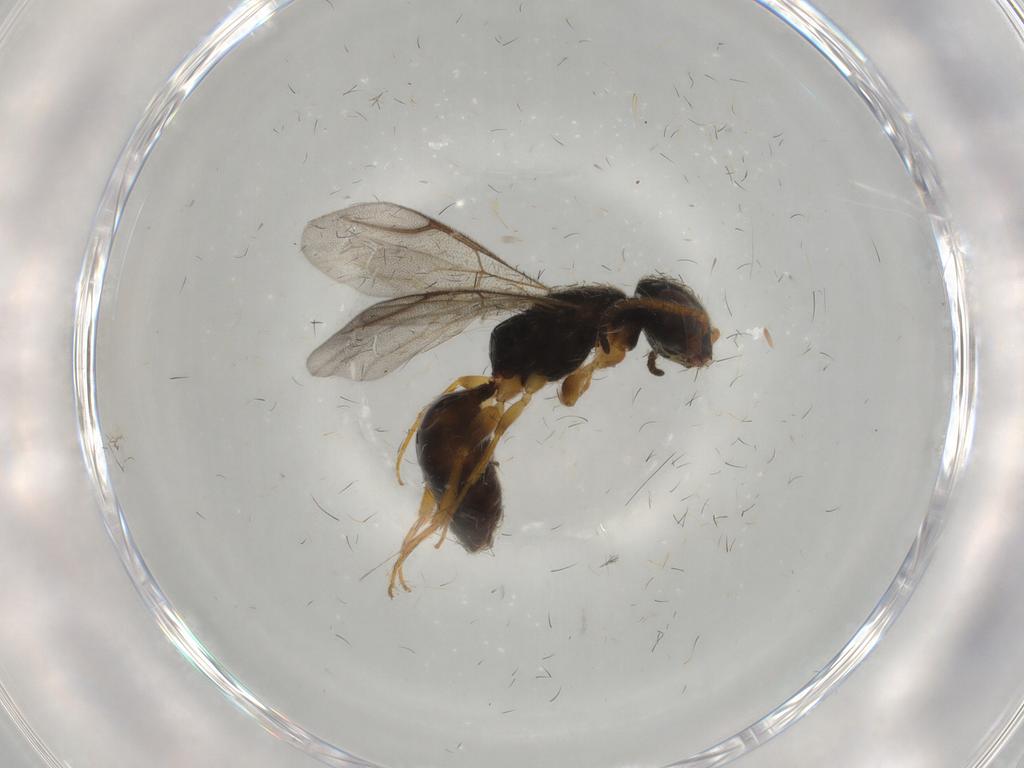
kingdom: Animalia
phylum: Arthropoda
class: Insecta
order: Hymenoptera
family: Bethylidae
